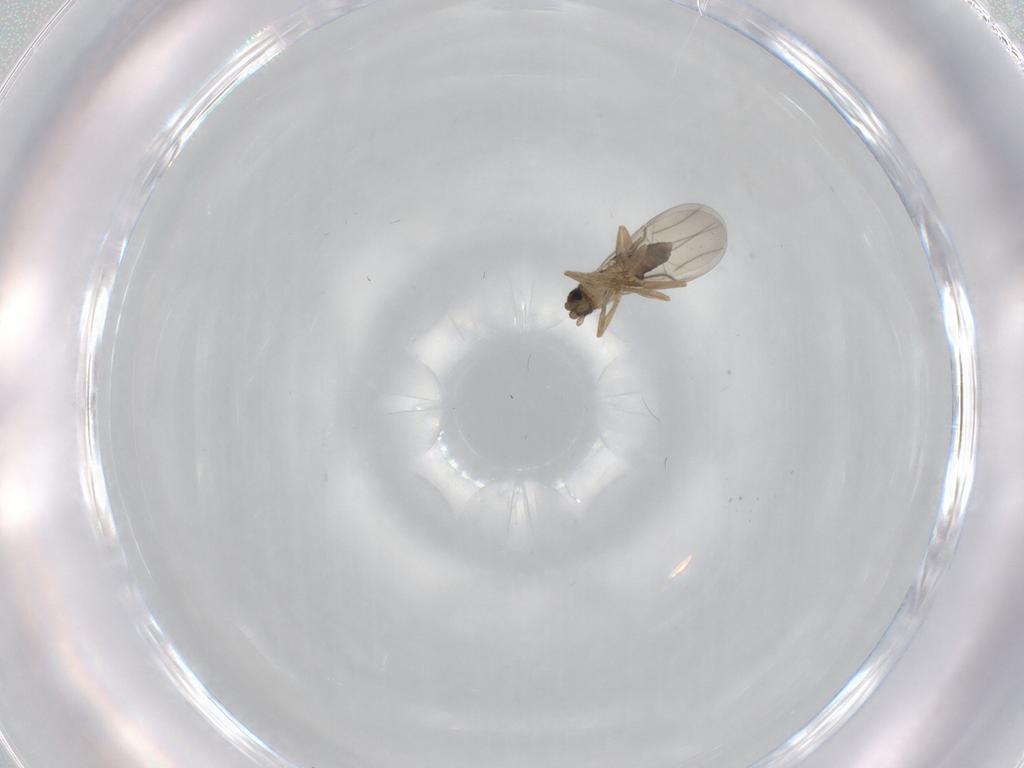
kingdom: Animalia
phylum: Arthropoda
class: Insecta
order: Diptera
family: Phoridae
